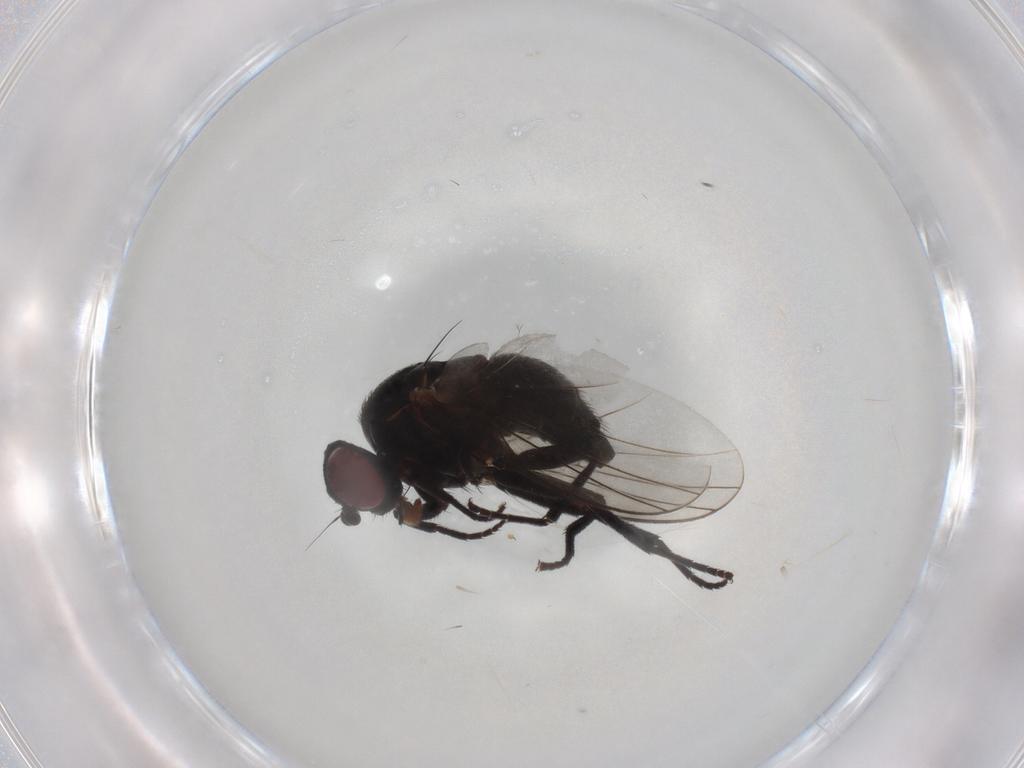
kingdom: Animalia
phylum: Arthropoda
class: Insecta
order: Diptera
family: Agromyzidae
